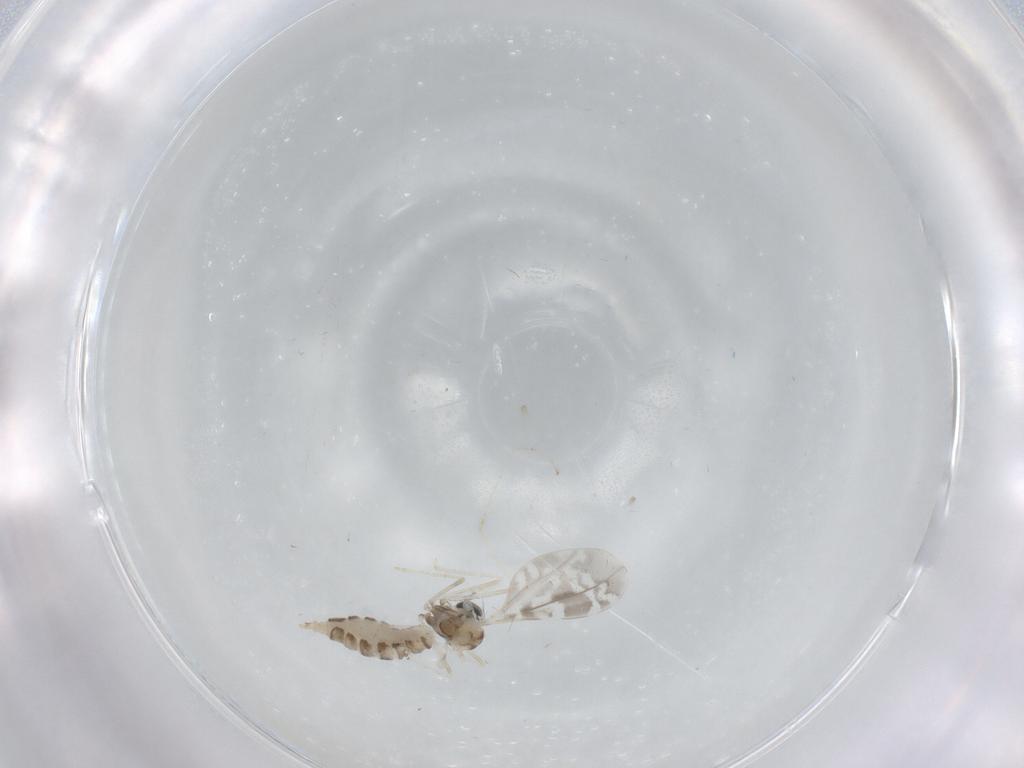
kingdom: Animalia
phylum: Arthropoda
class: Insecta
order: Diptera
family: Cecidomyiidae
